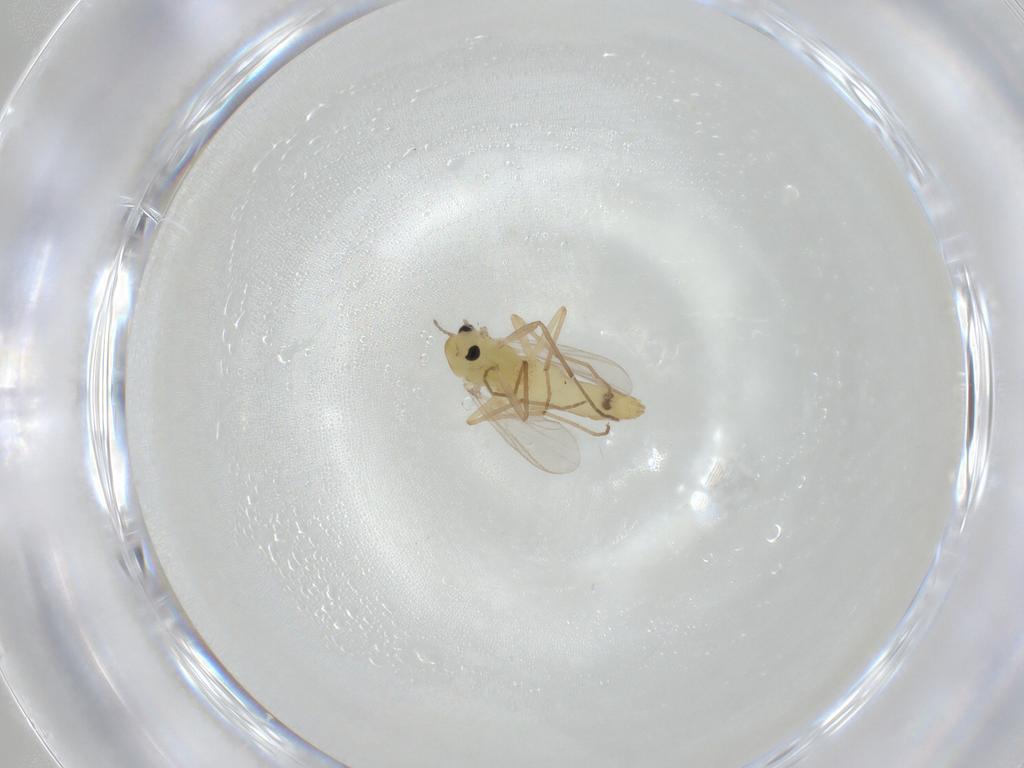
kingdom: Animalia
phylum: Arthropoda
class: Insecta
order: Diptera
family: Chironomidae
